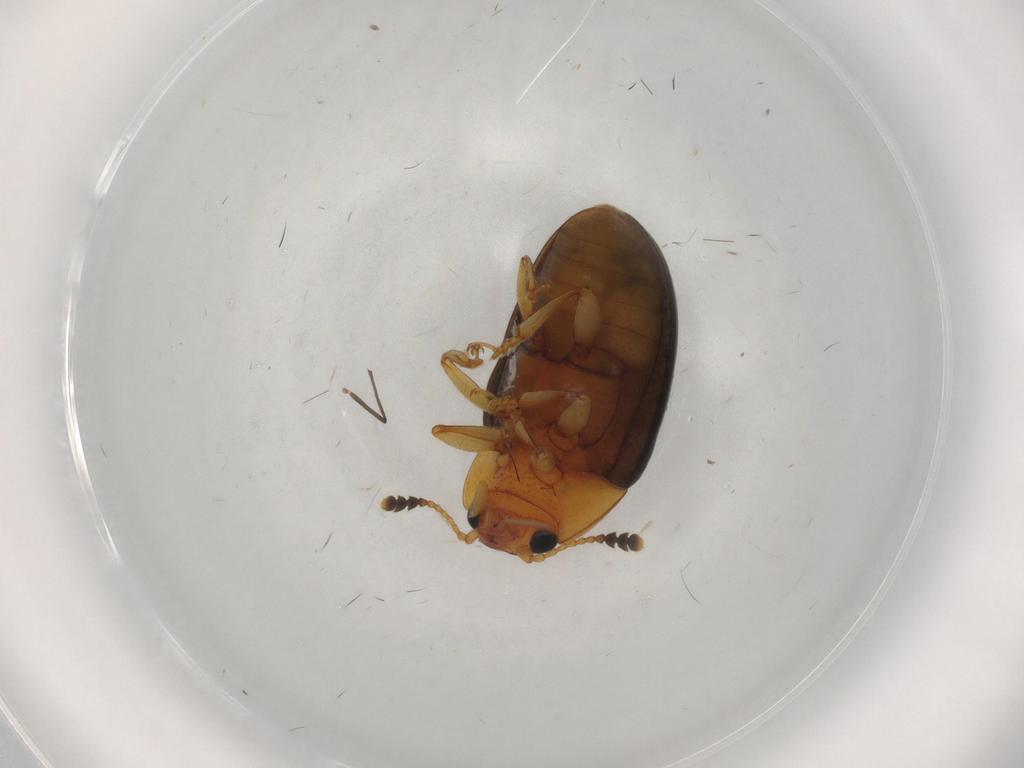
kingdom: Animalia
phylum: Arthropoda
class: Insecta
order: Coleoptera
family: Erotylidae
